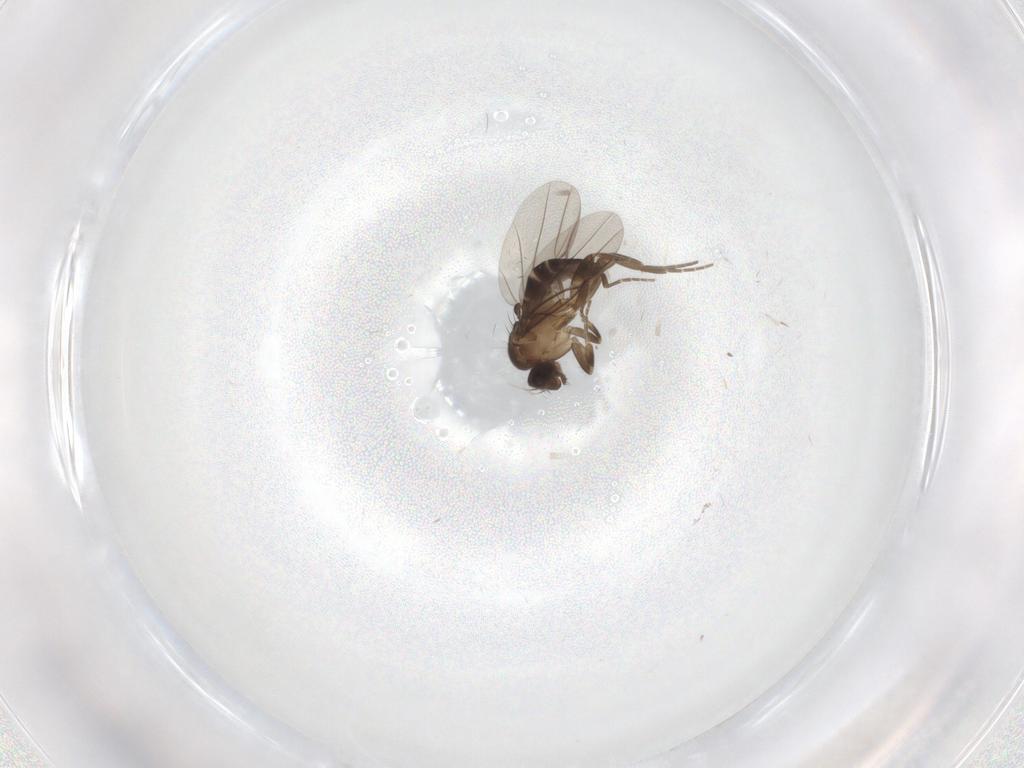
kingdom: Animalia
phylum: Arthropoda
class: Insecta
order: Diptera
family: Phoridae
